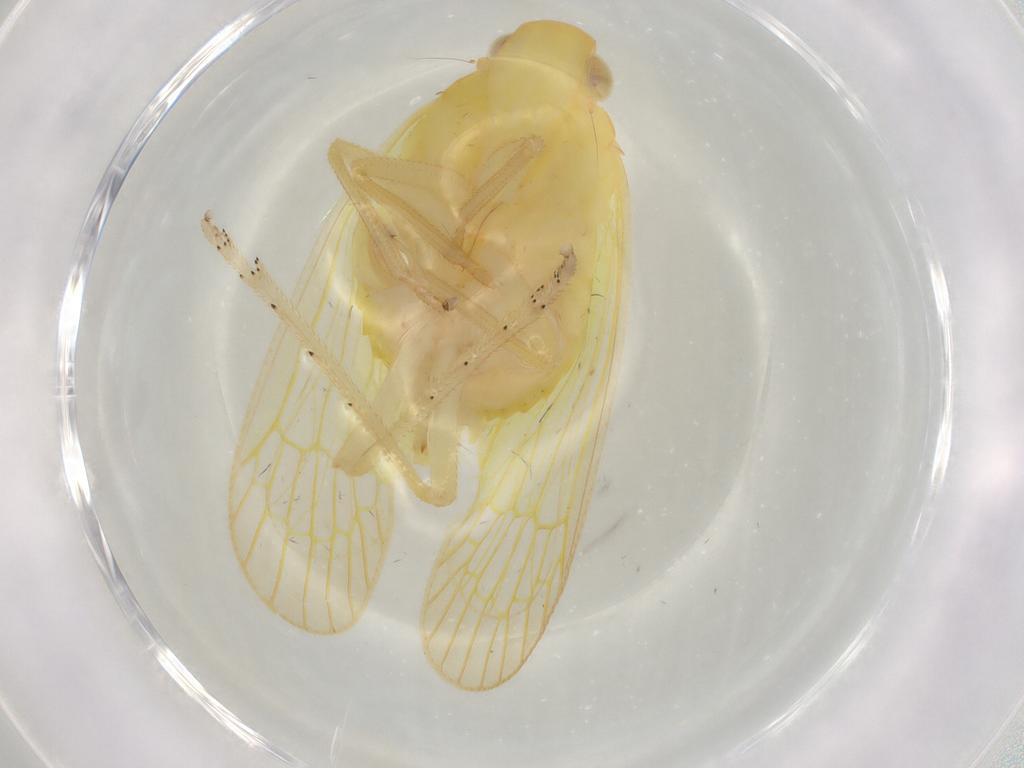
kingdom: Animalia
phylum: Arthropoda
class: Insecta
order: Hemiptera
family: Tropiduchidae
